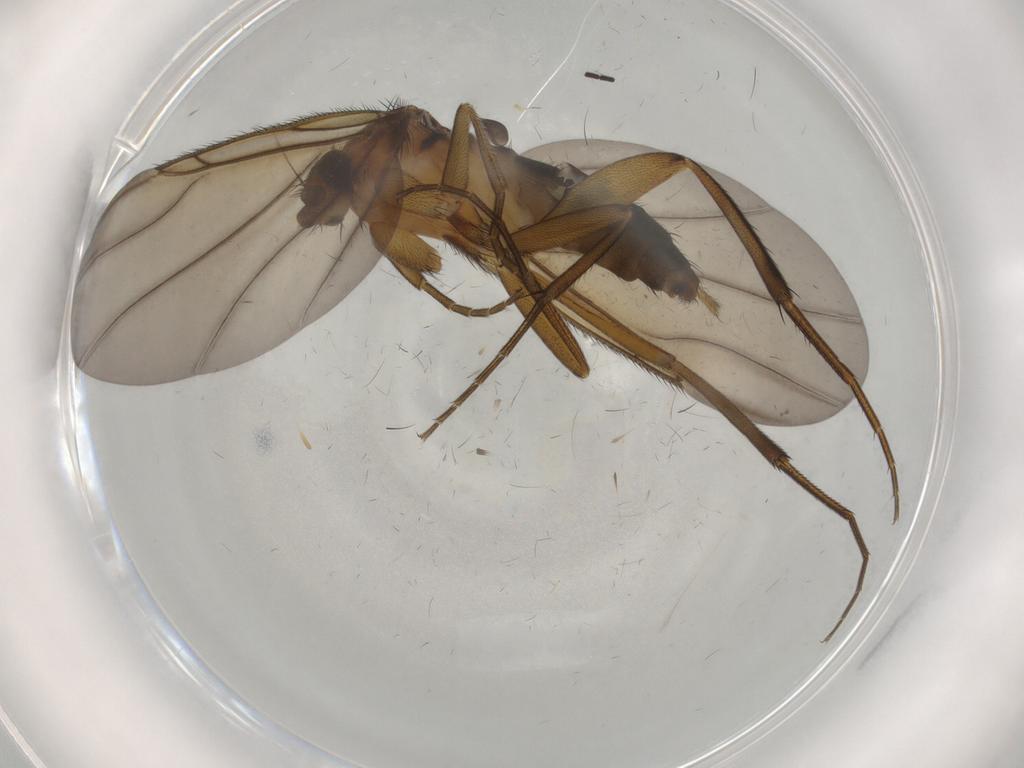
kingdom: Animalia
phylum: Arthropoda
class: Insecta
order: Diptera
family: Phoridae
